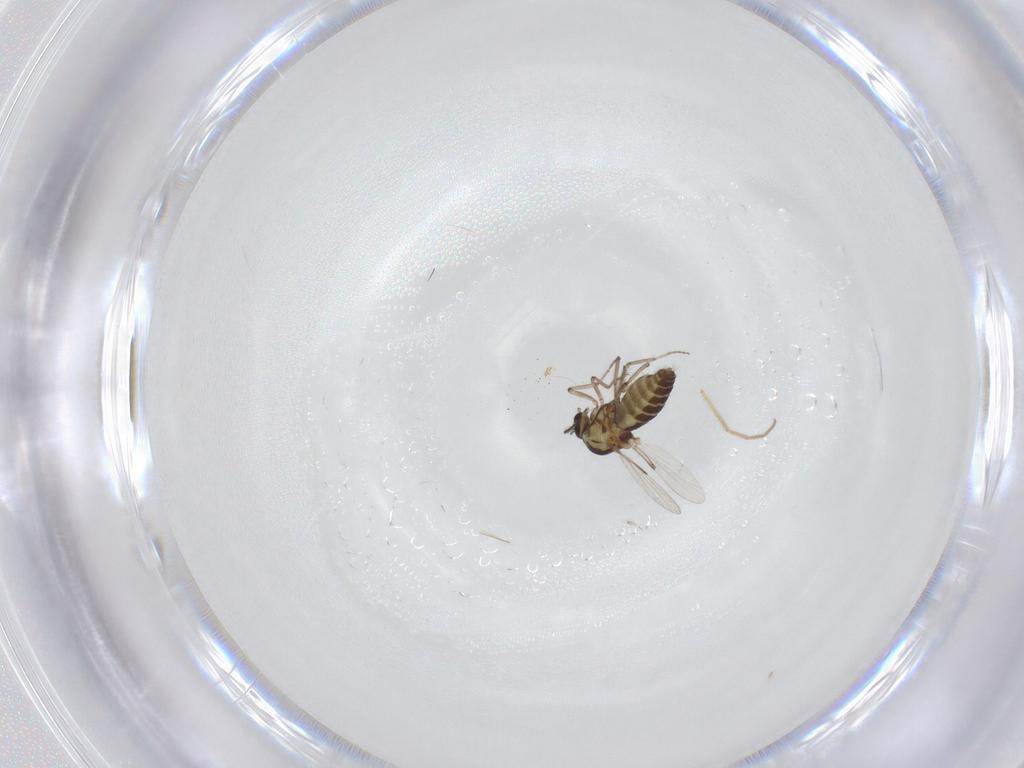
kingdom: Animalia
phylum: Arthropoda
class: Insecta
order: Diptera
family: Ceratopogonidae
